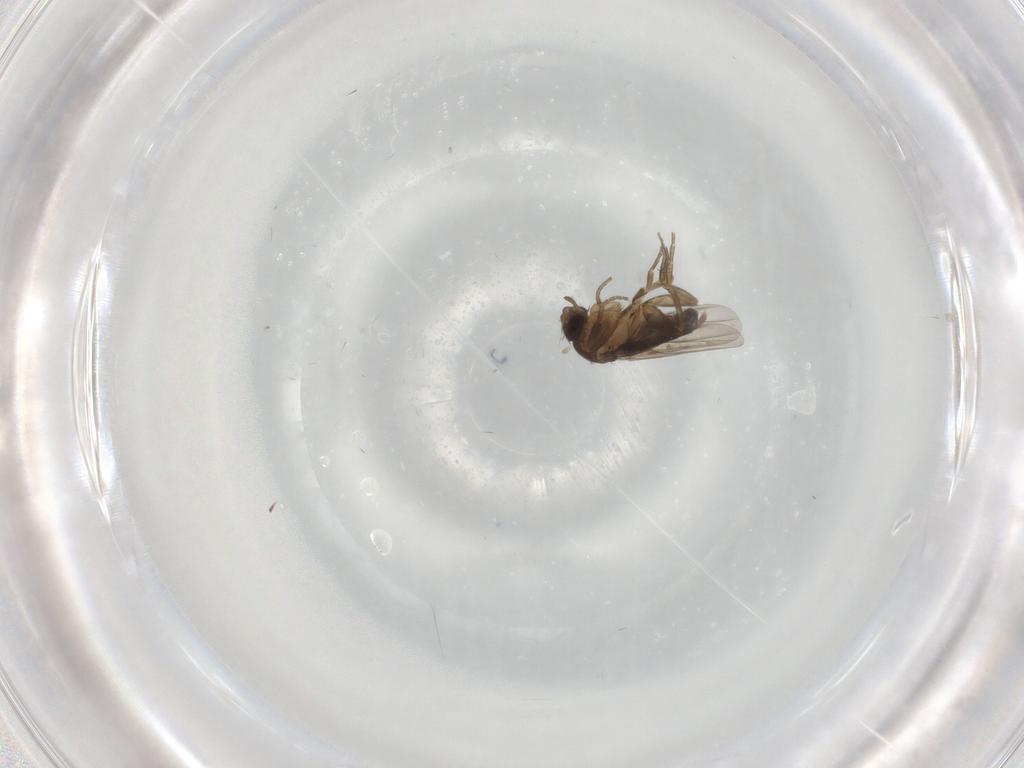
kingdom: Animalia
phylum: Arthropoda
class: Insecta
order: Diptera
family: Phoridae
